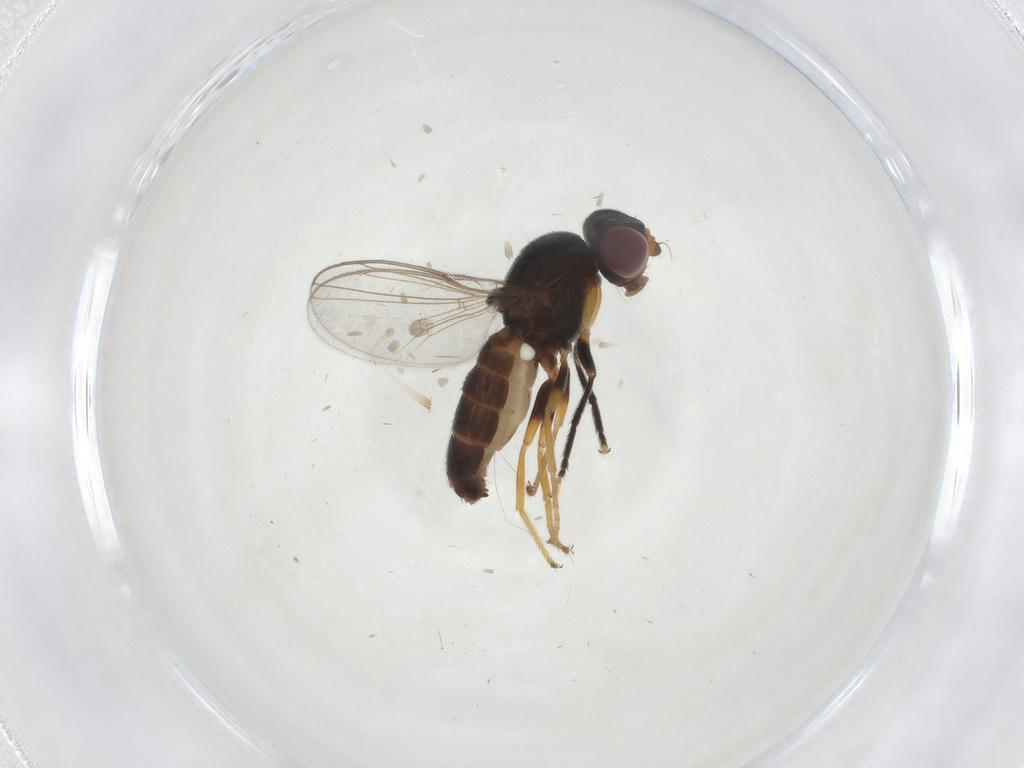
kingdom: Animalia
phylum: Arthropoda
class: Insecta
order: Diptera
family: Chloropidae
